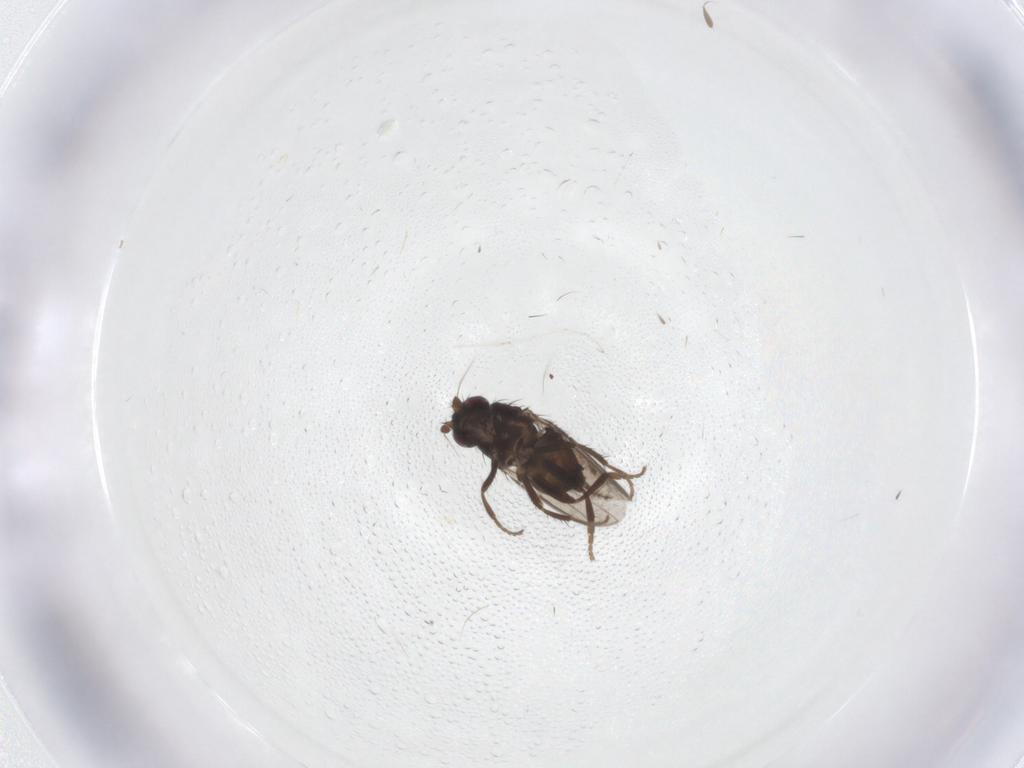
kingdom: Animalia
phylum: Arthropoda
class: Insecta
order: Diptera
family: Sphaeroceridae
